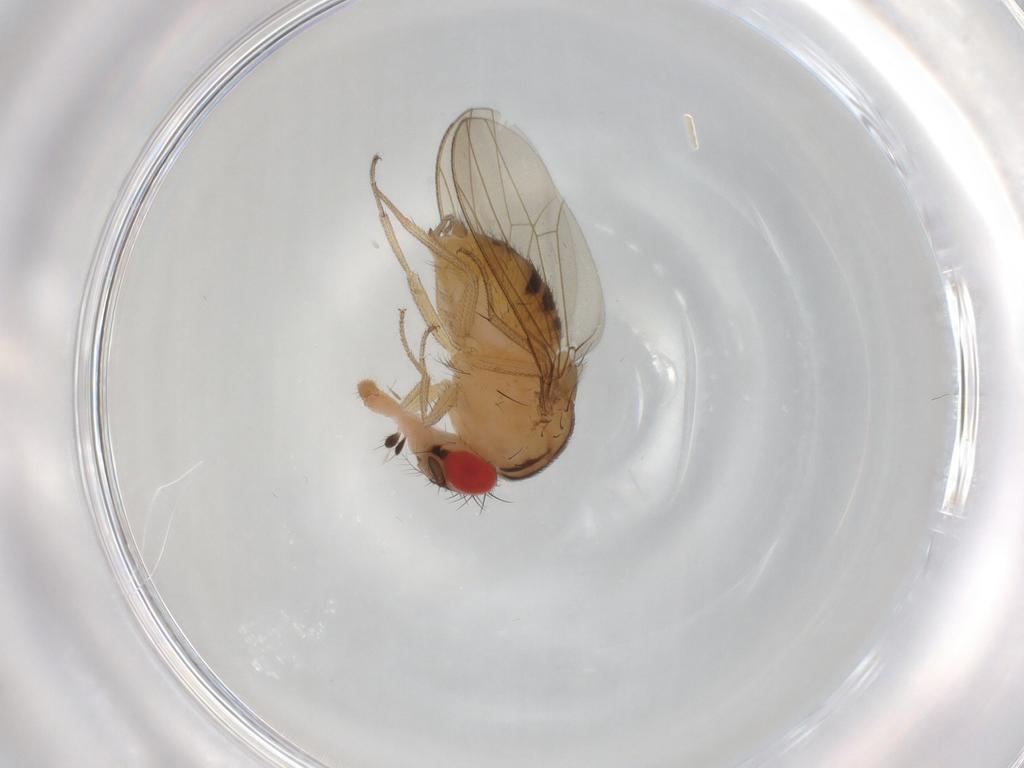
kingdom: Animalia
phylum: Arthropoda
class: Insecta
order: Diptera
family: Drosophilidae
